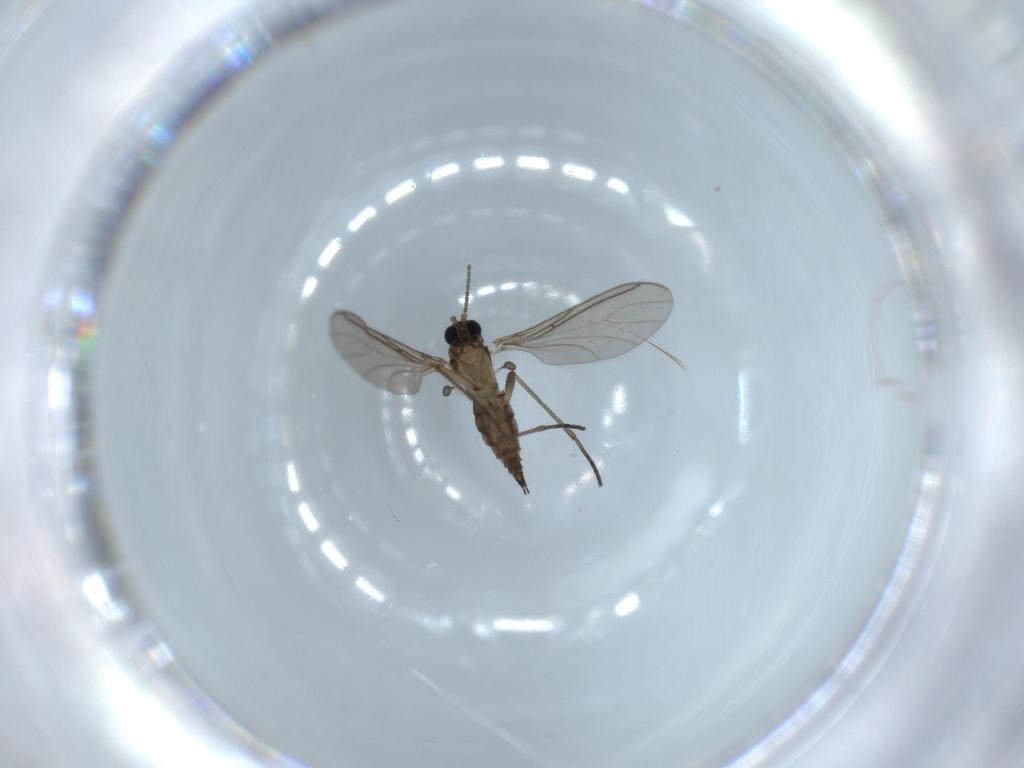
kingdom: Animalia
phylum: Arthropoda
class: Insecta
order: Diptera
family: Sciaridae
